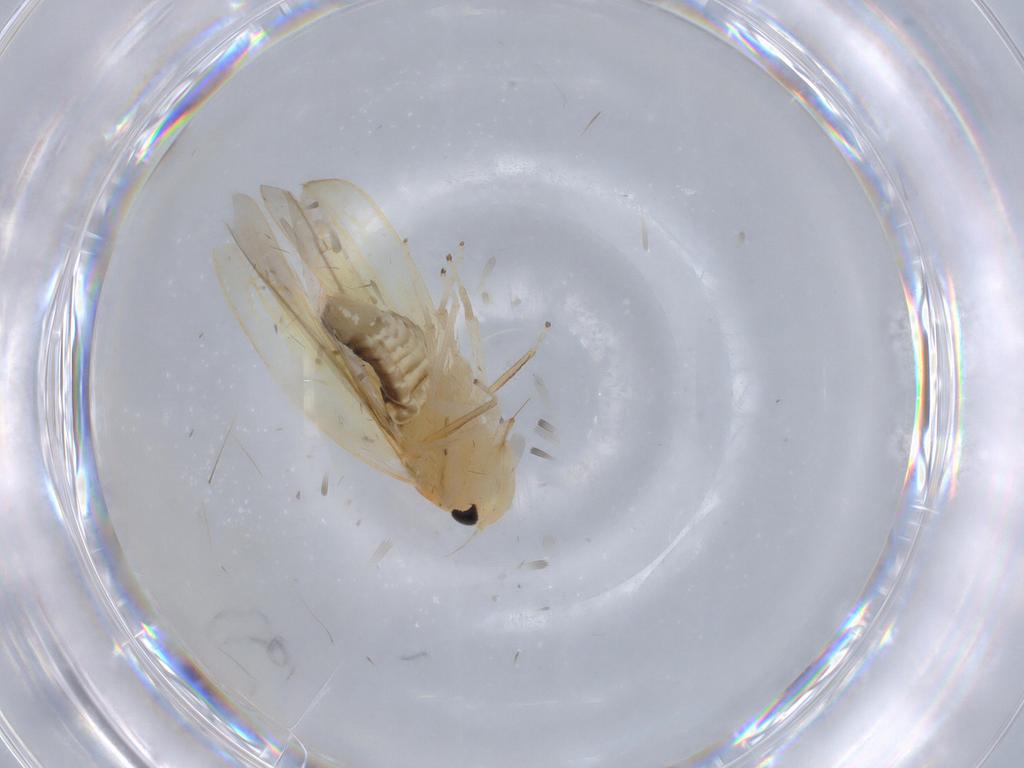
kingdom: Animalia
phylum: Arthropoda
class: Insecta
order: Hemiptera
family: Cicadellidae
